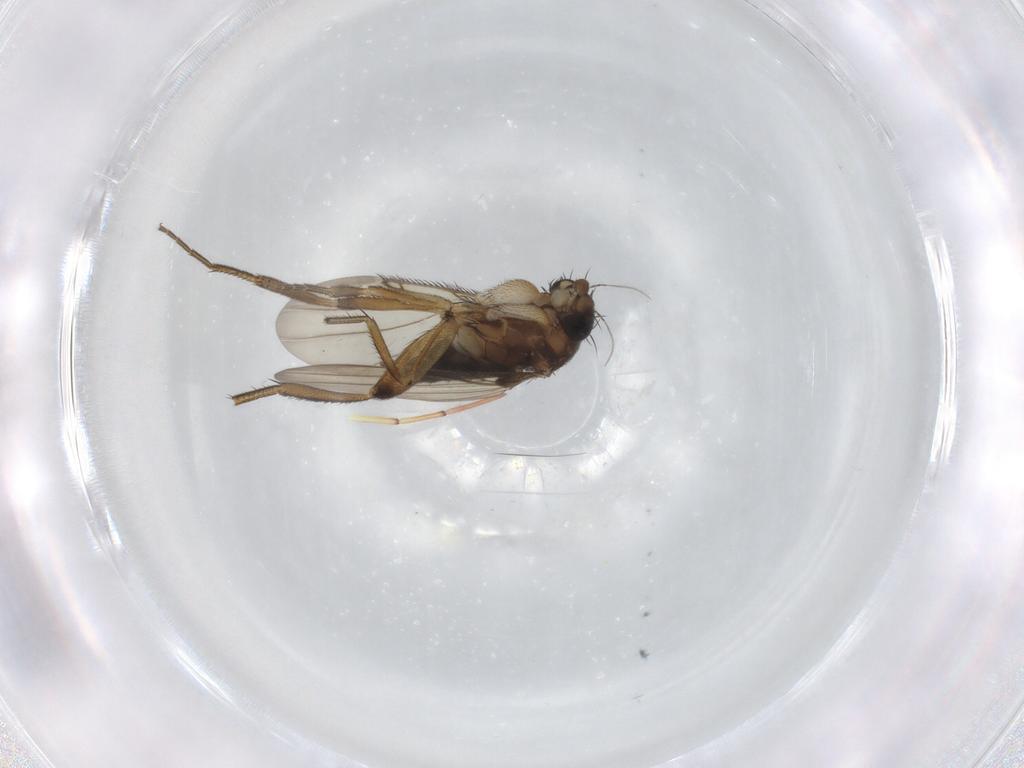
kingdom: Animalia
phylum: Arthropoda
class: Insecta
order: Diptera
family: Phoridae
